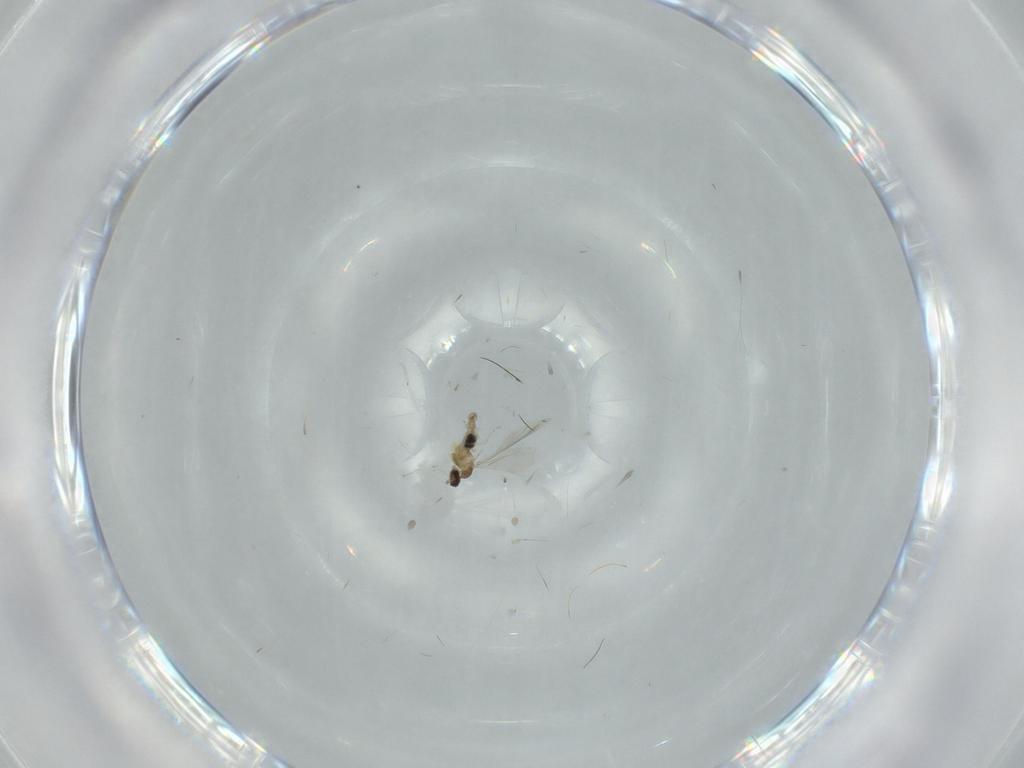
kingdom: Animalia
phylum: Arthropoda
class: Insecta
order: Diptera
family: Cecidomyiidae
